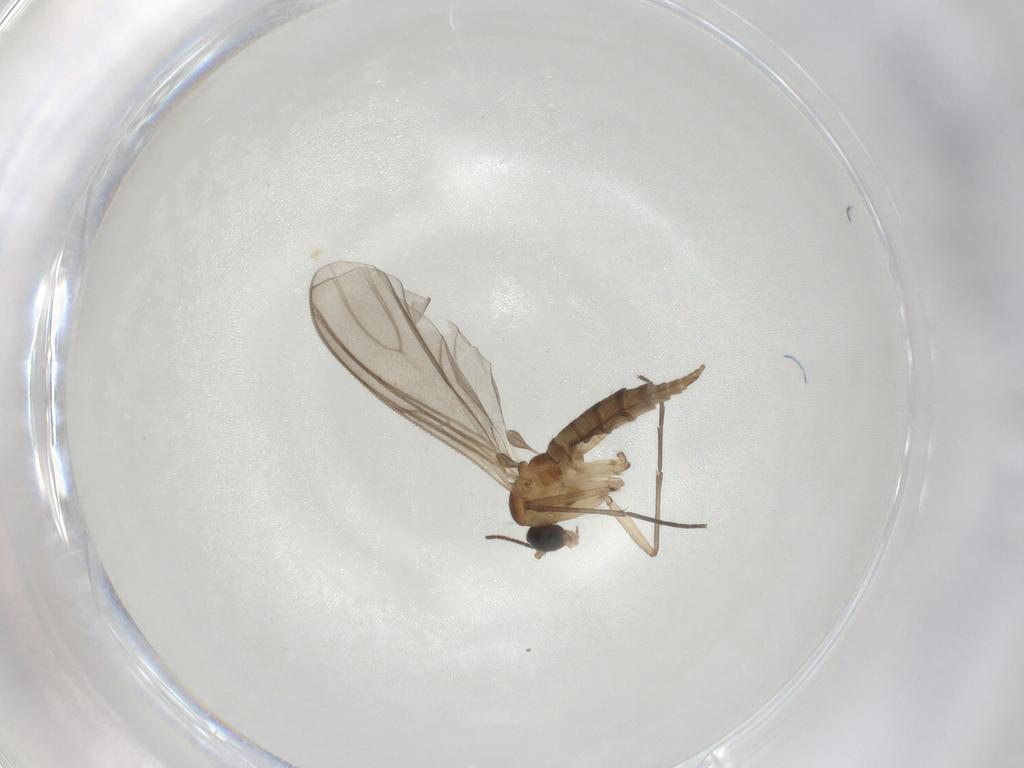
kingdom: Animalia
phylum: Arthropoda
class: Insecta
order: Diptera
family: Sciaridae
